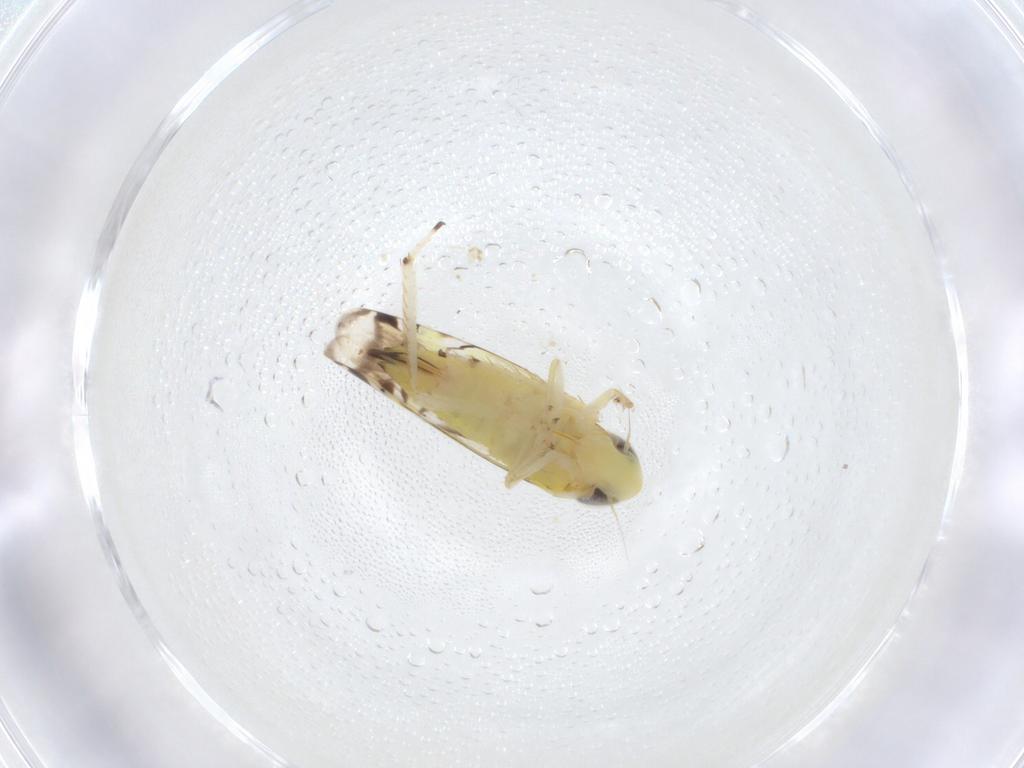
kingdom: Animalia
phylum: Arthropoda
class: Insecta
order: Hemiptera
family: Cicadellidae
